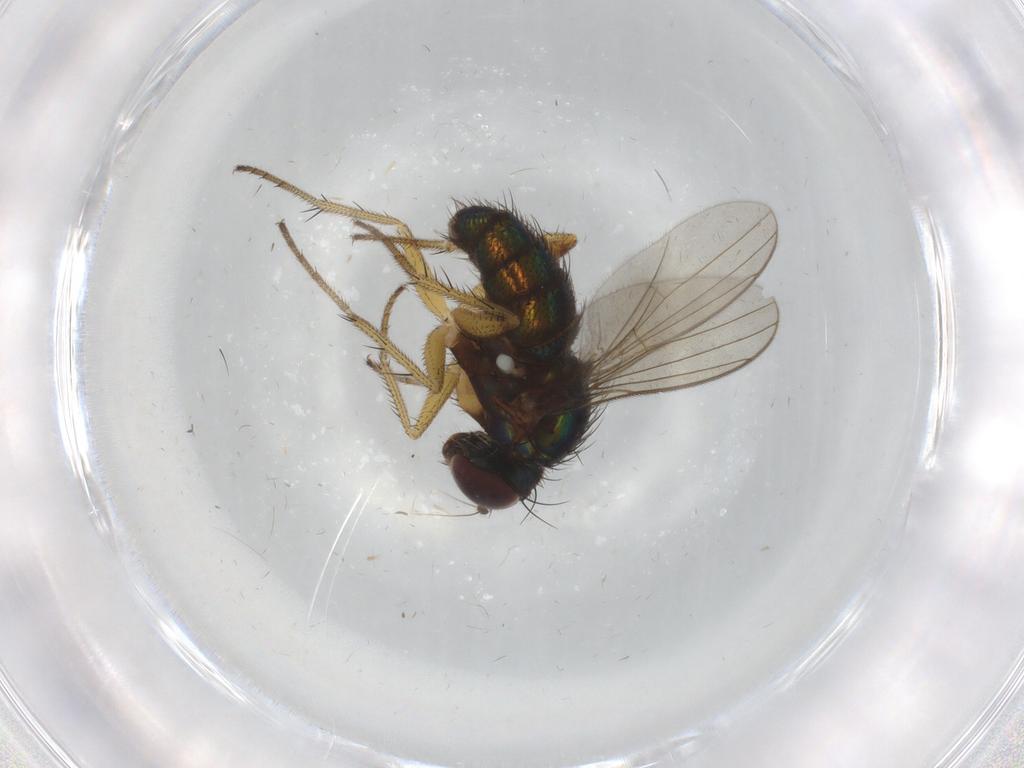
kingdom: Animalia
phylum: Arthropoda
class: Insecta
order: Diptera
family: Dolichopodidae
